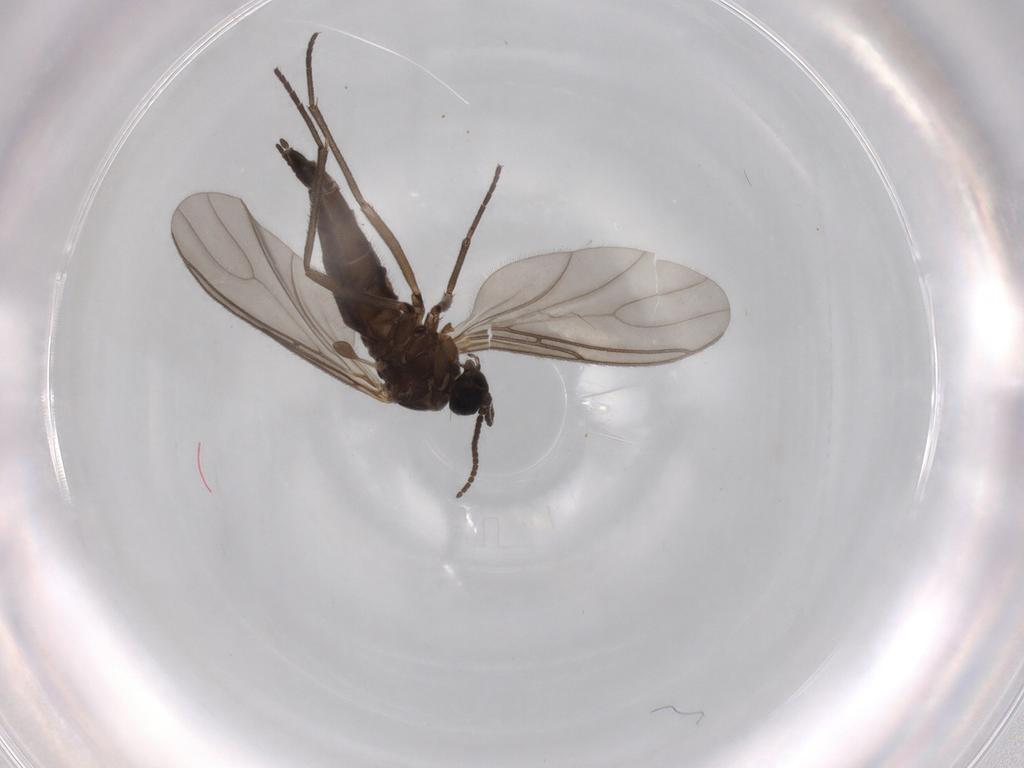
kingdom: Animalia
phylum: Arthropoda
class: Insecta
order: Diptera
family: Sciaridae
